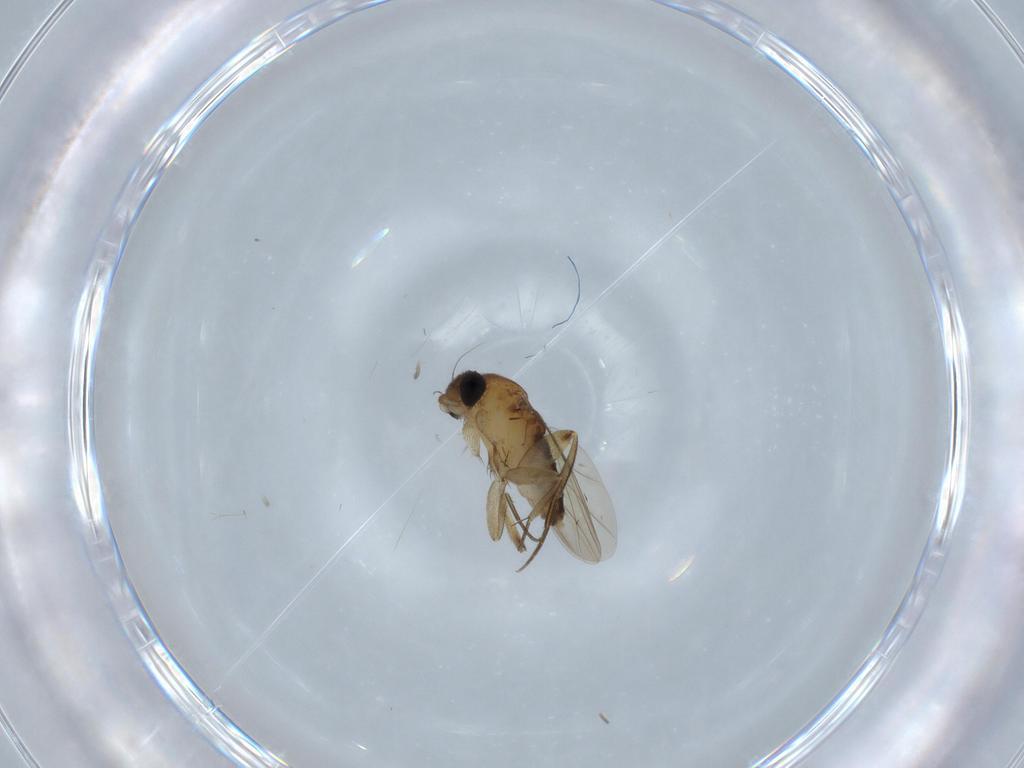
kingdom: Animalia
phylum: Arthropoda
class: Insecta
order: Diptera
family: Phoridae
